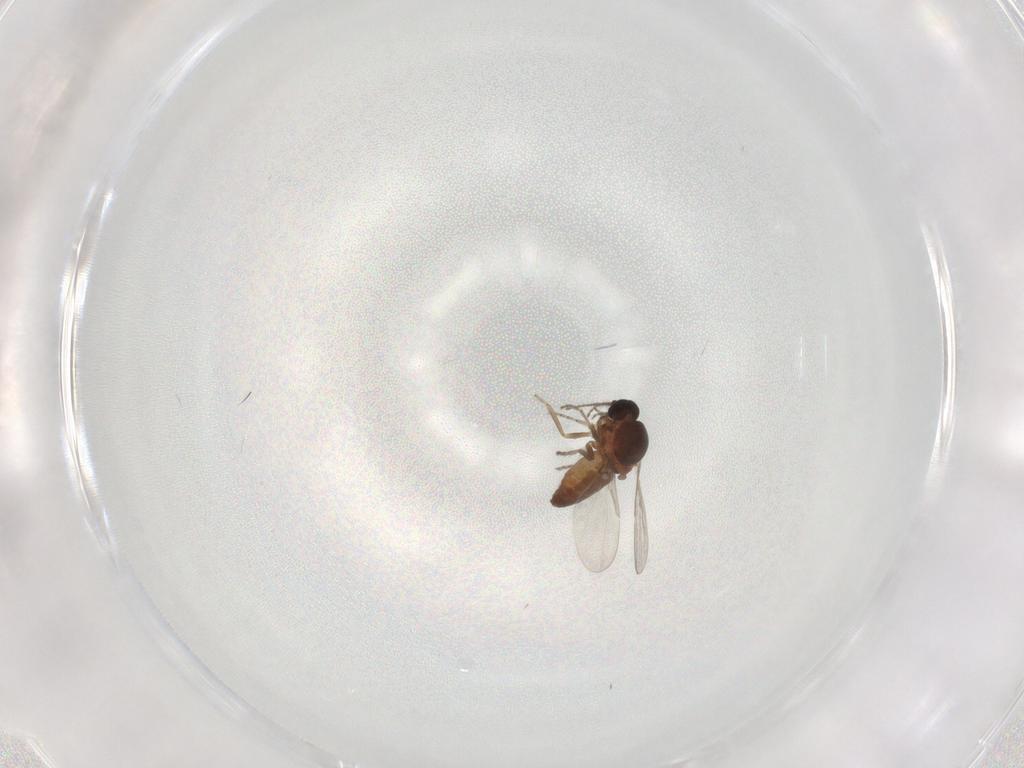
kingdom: Animalia
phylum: Arthropoda
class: Insecta
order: Diptera
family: Ceratopogonidae
